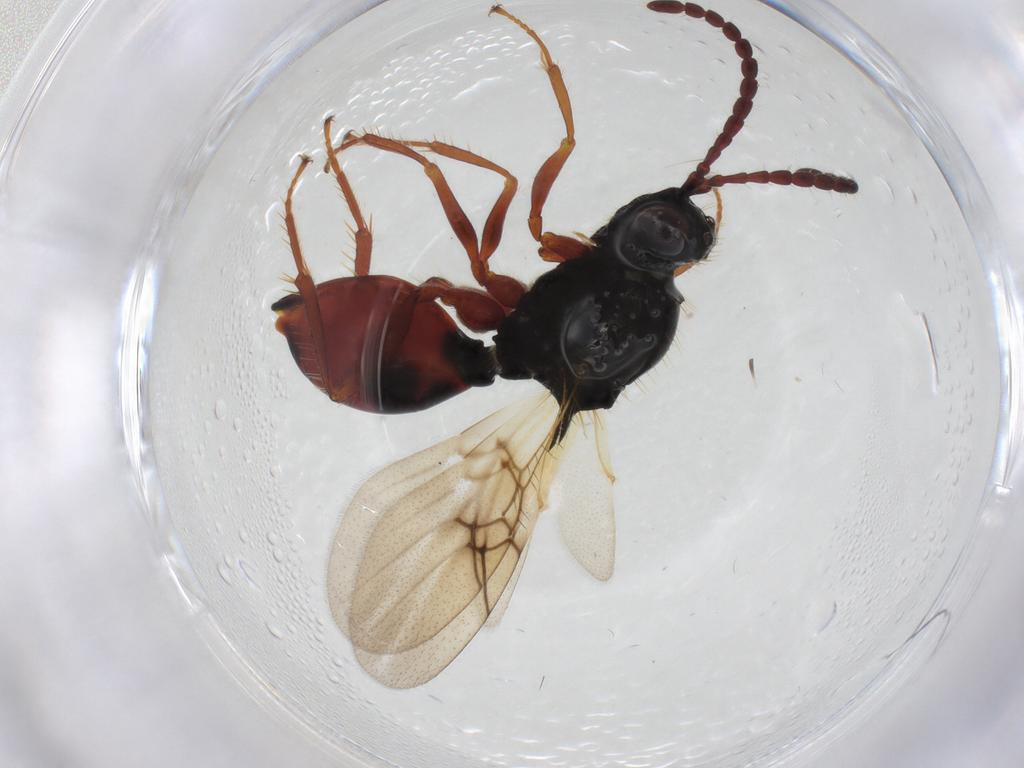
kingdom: Animalia
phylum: Arthropoda
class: Insecta
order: Hymenoptera
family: Figitidae
